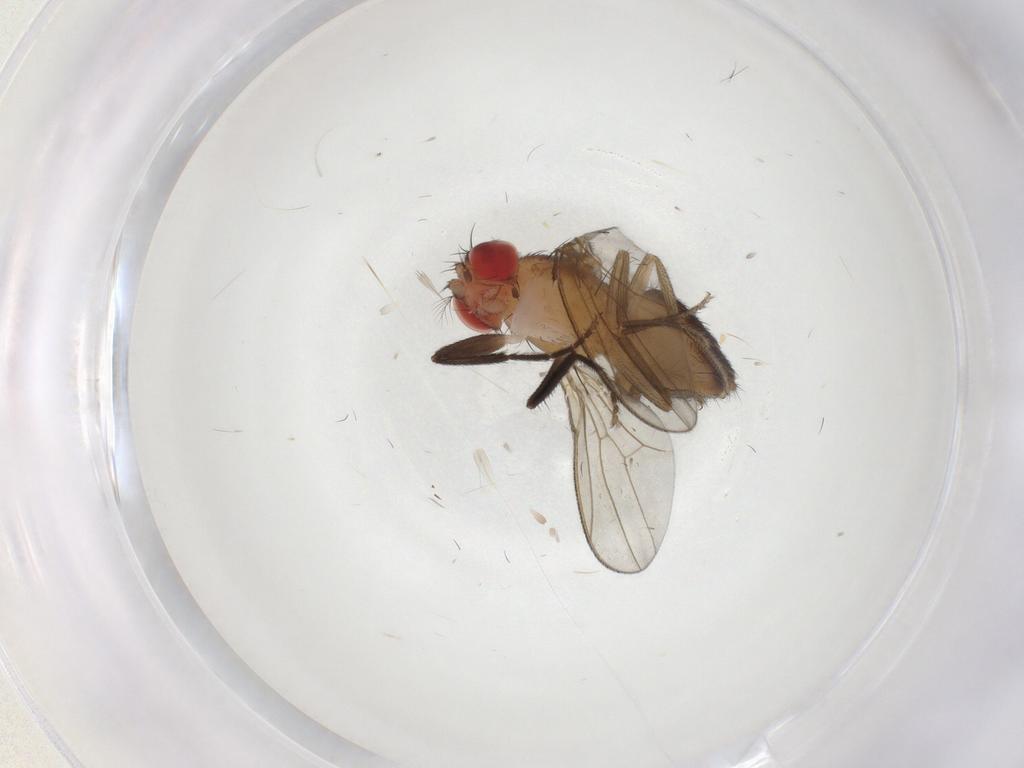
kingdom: Animalia
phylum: Arthropoda
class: Insecta
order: Diptera
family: Drosophilidae
